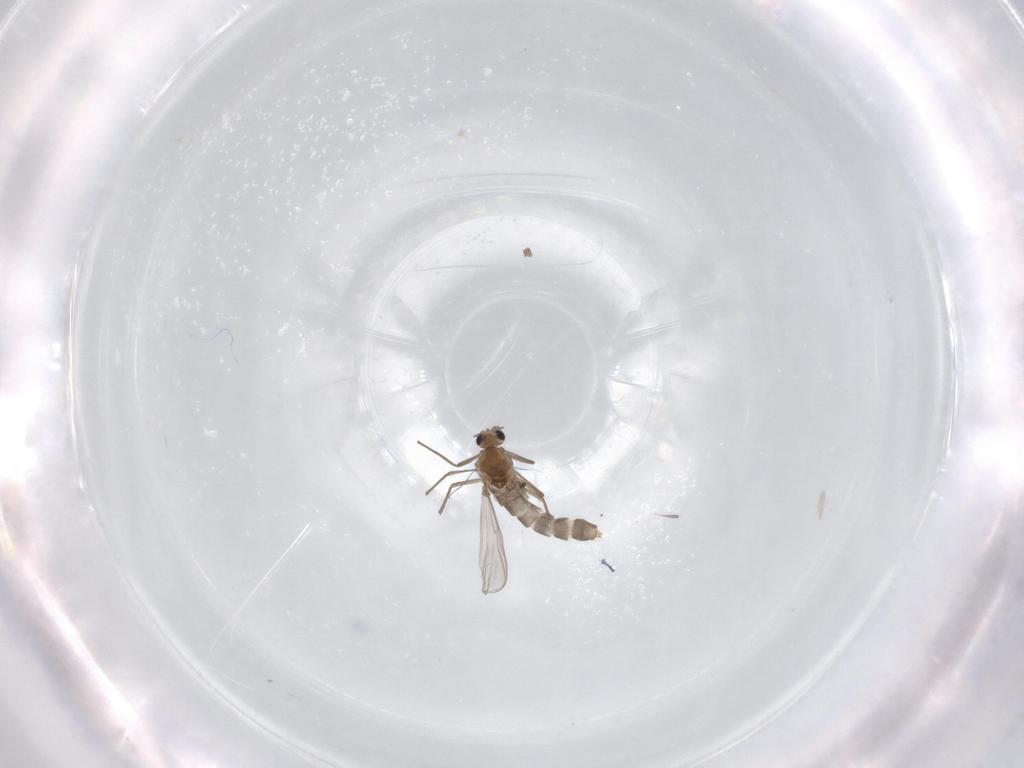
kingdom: Animalia
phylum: Arthropoda
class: Insecta
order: Diptera
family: Chironomidae
